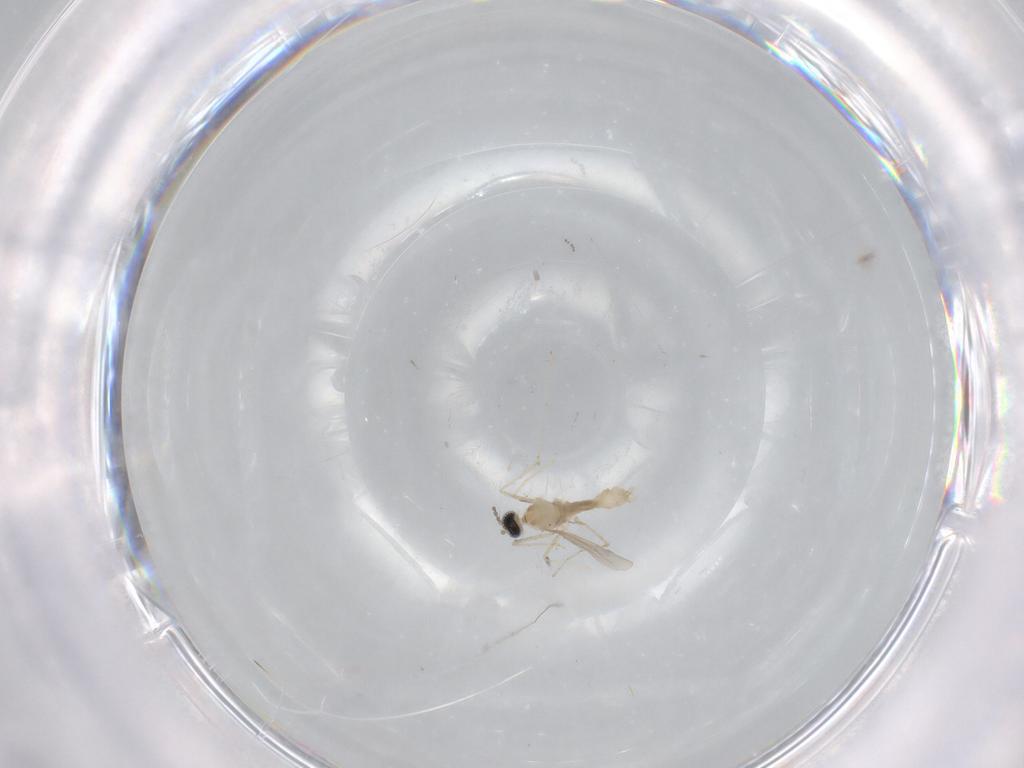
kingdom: Animalia
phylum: Arthropoda
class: Insecta
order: Diptera
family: Cecidomyiidae
